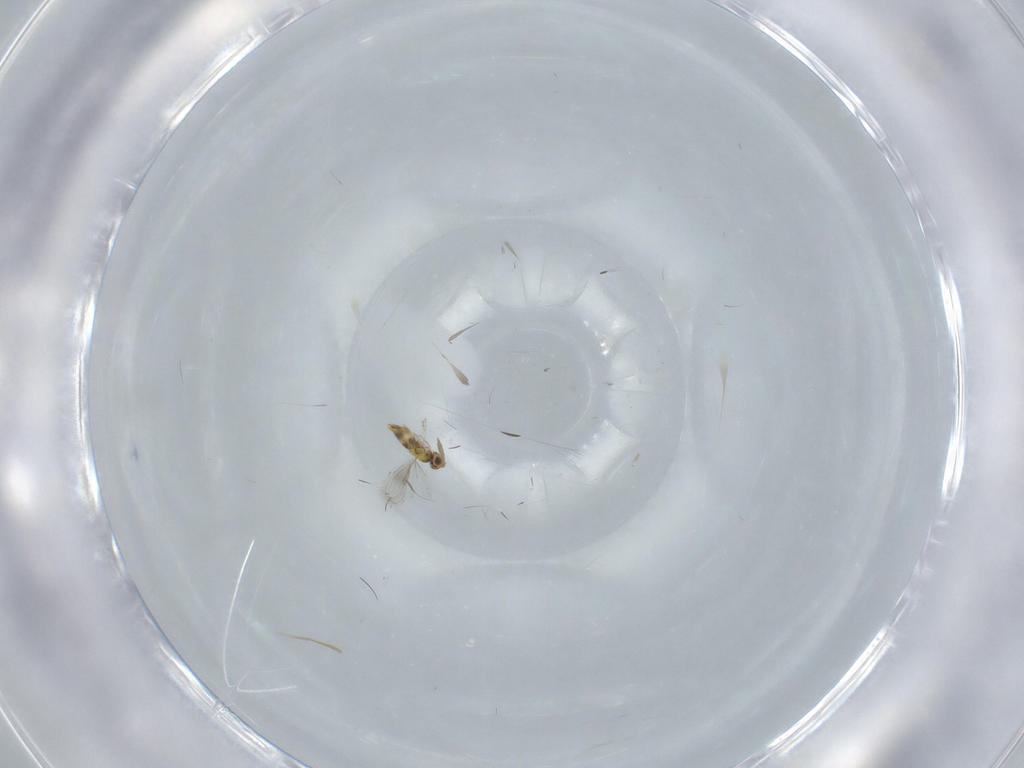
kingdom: Animalia
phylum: Arthropoda
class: Insecta
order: Hymenoptera
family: Aphelinidae
